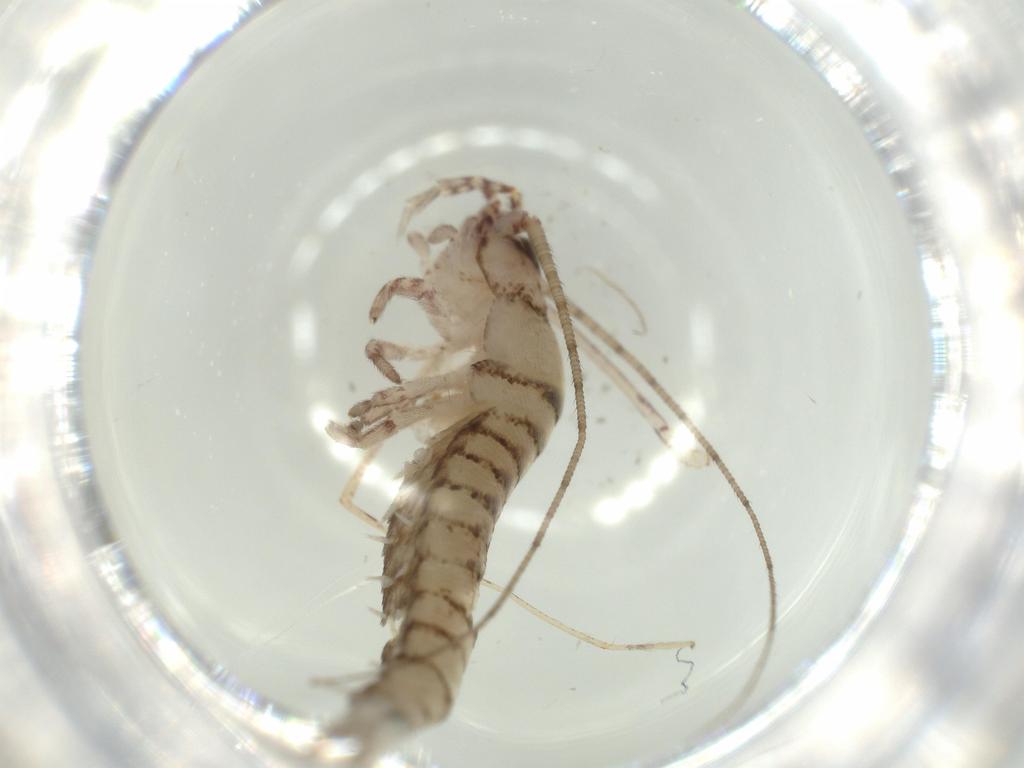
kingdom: Animalia
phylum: Arthropoda
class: Insecta
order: Archaeognatha
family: Machilidae
